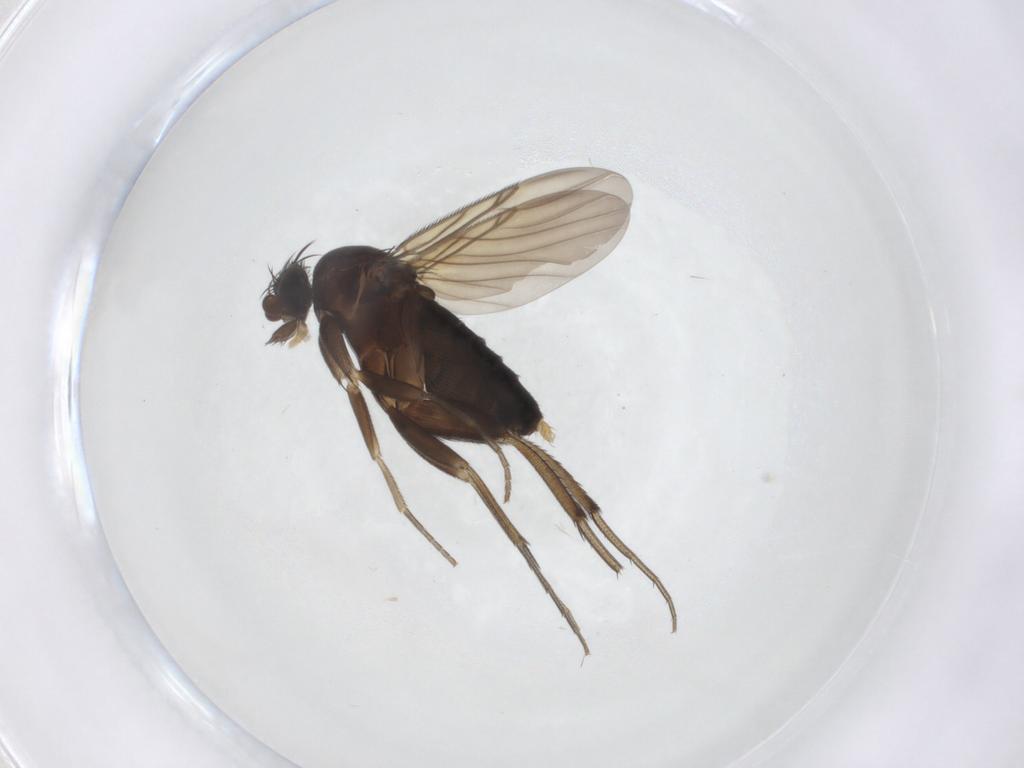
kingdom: Animalia
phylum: Arthropoda
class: Insecta
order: Diptera
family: Phoridae
